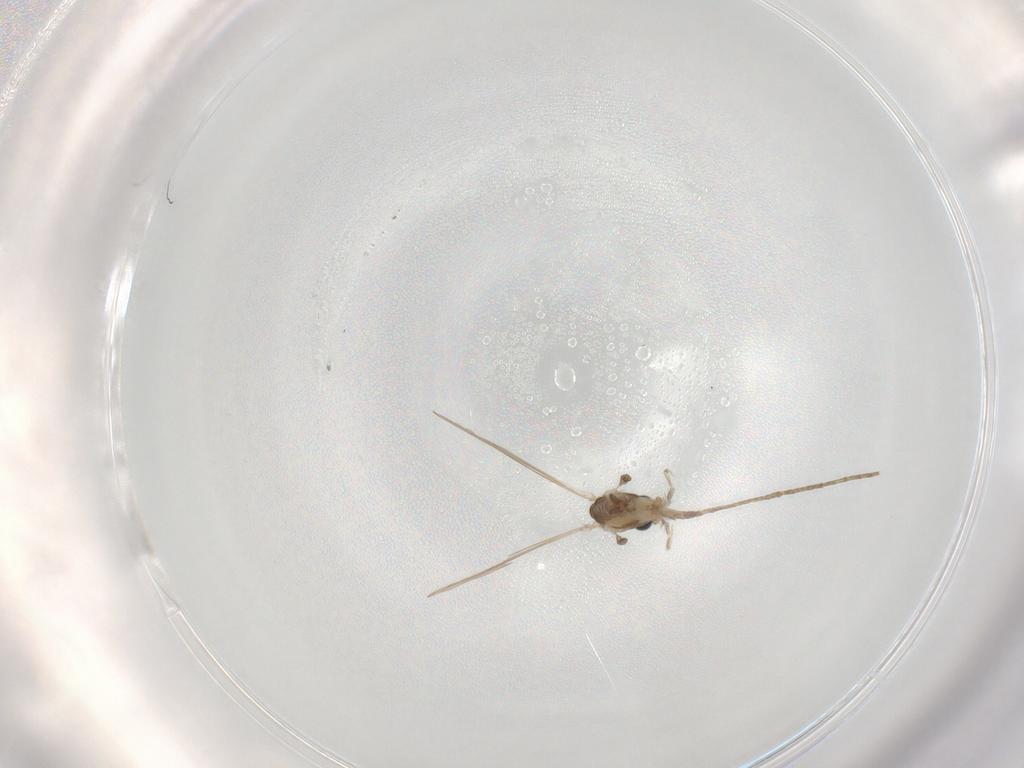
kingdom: Animalia
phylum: Arthropoda
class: Insecta
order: Diptera
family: Psychodidae
